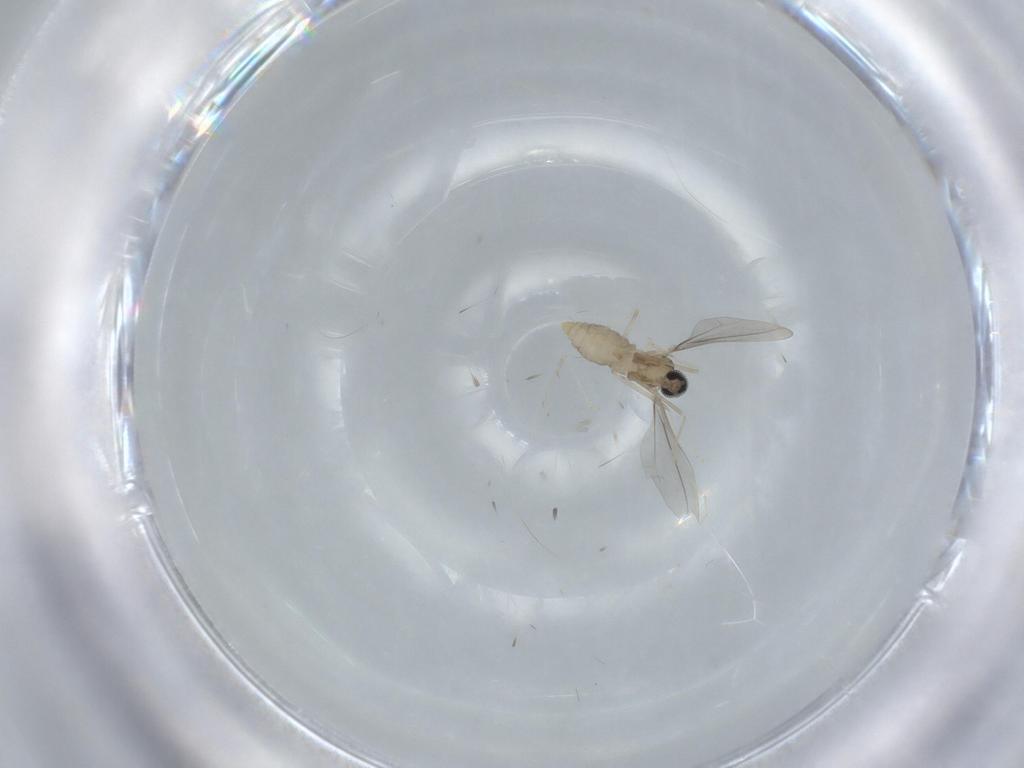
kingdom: Animalia
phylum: Arthropoda
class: Insecta
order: Diptera
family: Cecidomyiidae
